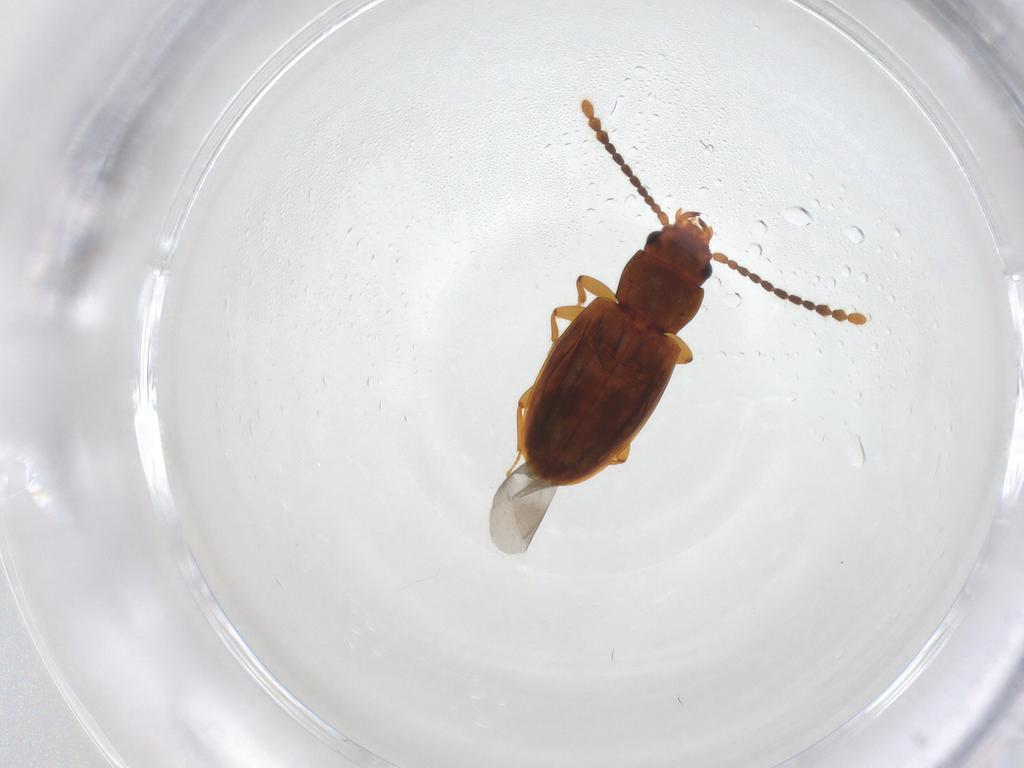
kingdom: Animalia
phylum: Arthropoda
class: Insecta
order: Coleoptera
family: Laemophloeidae
